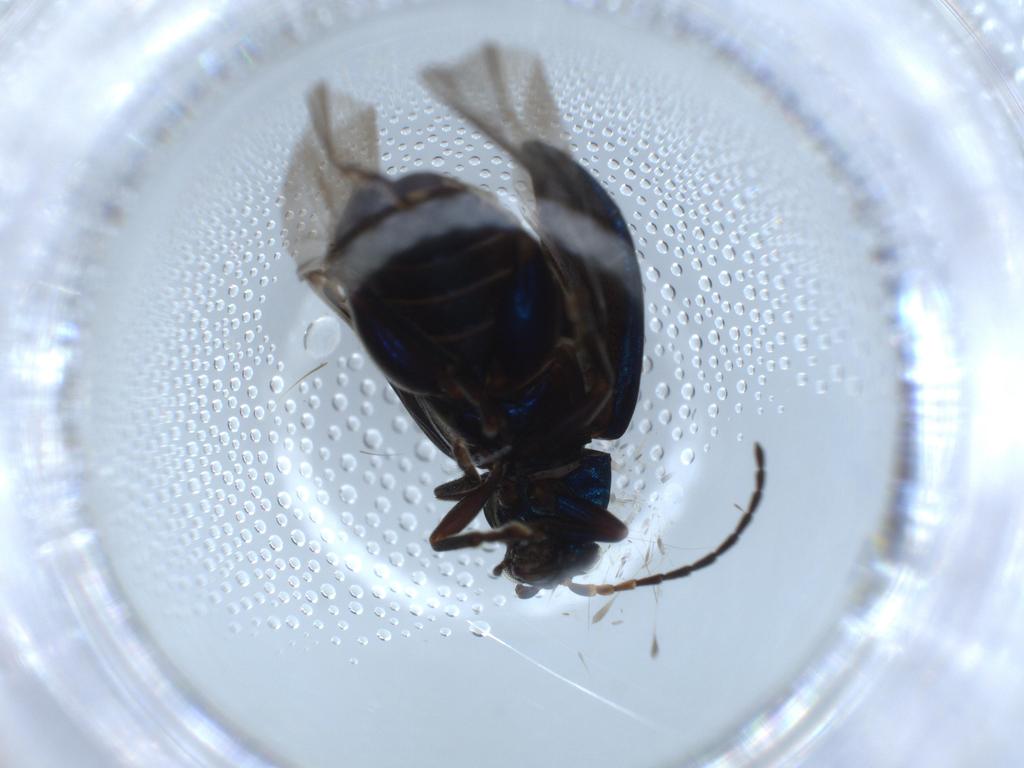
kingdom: Animalia
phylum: Arthropoda
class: Insecta
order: Coleoptera
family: Chrysomelidae
